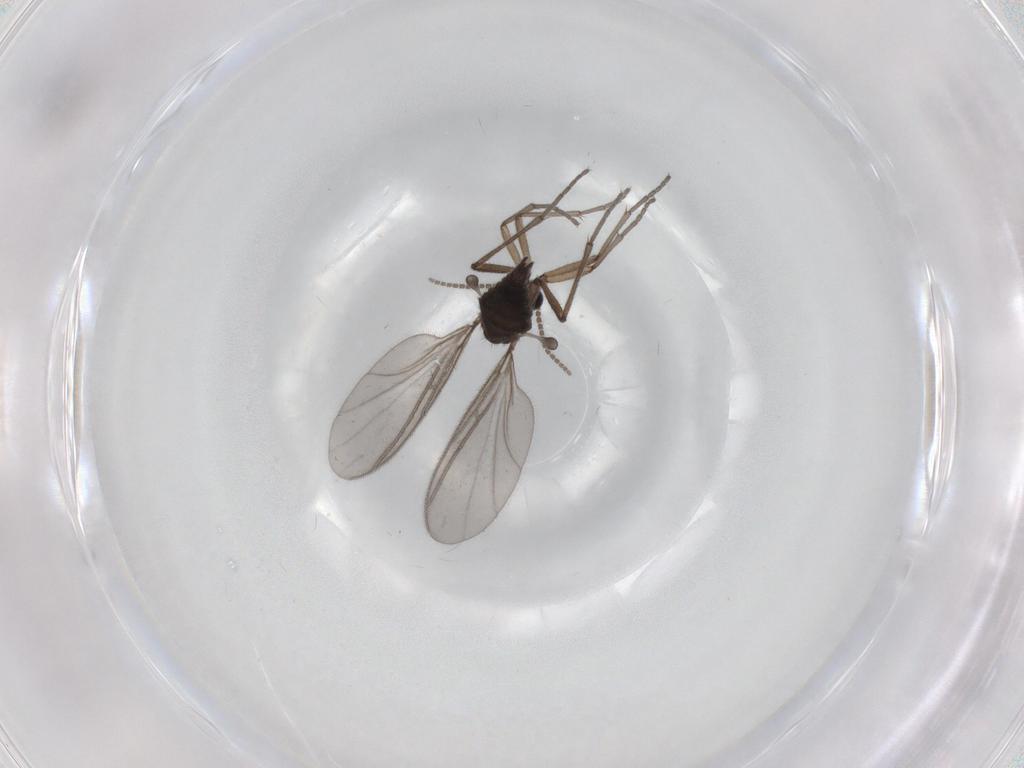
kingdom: Animalia
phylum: Arthropoda
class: Insecta
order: Diptera
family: Sciaridae
